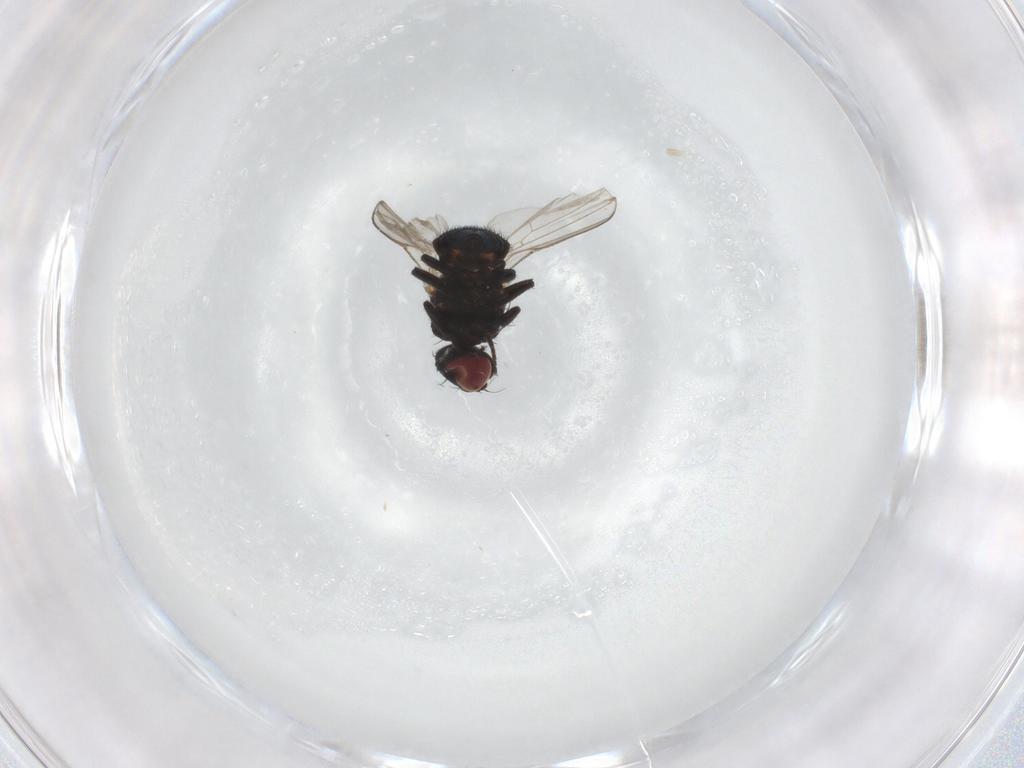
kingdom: Animalia
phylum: Arthropoda
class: Insecta
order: Diptera
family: Agromyzidae
